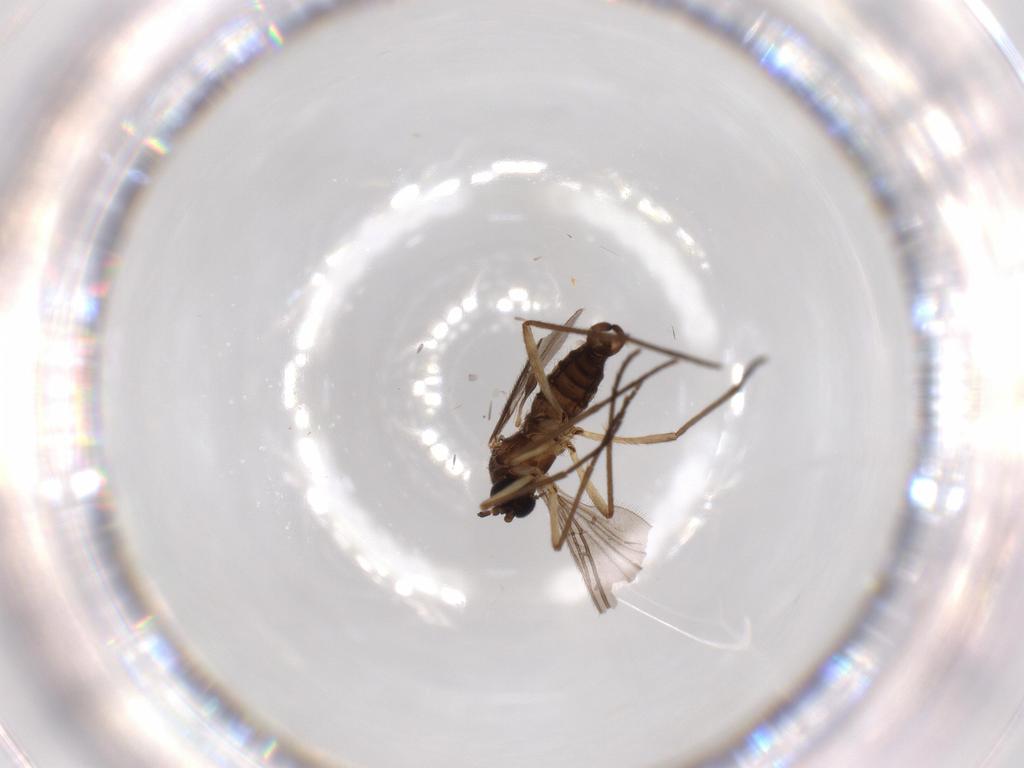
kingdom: Animalia
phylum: Arthropoda
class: Insecta
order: Diptera
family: Sciaridae
